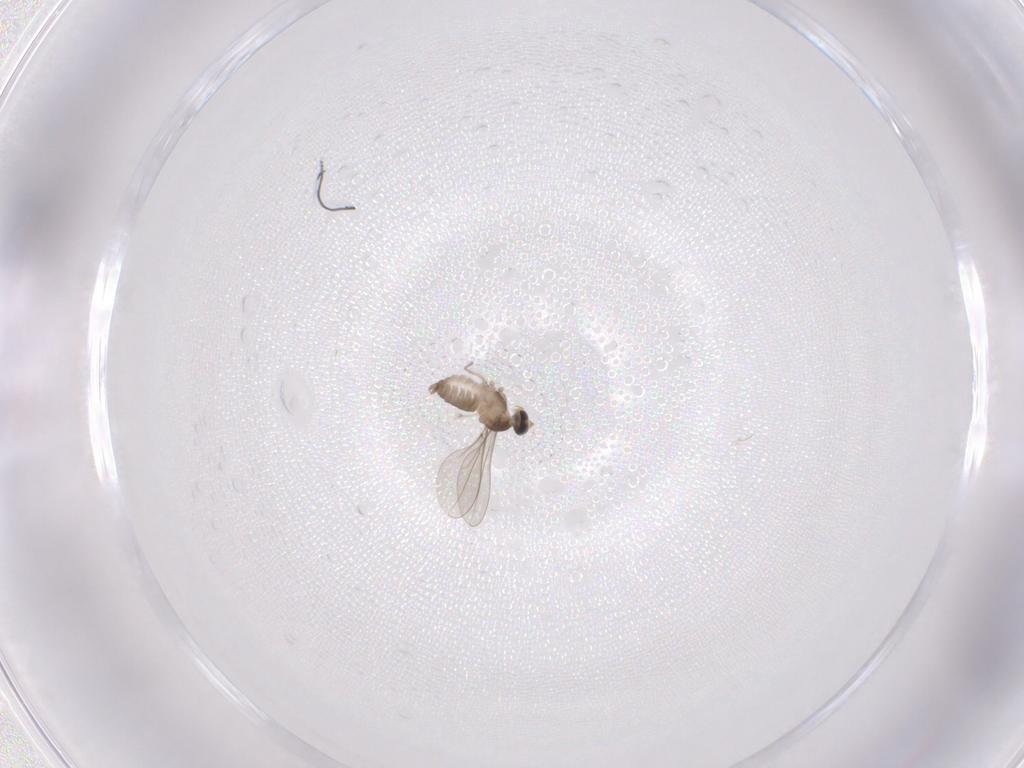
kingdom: Animalia
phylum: Arthropoda
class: Insecta
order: Diptera
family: Cecidomyiidae
